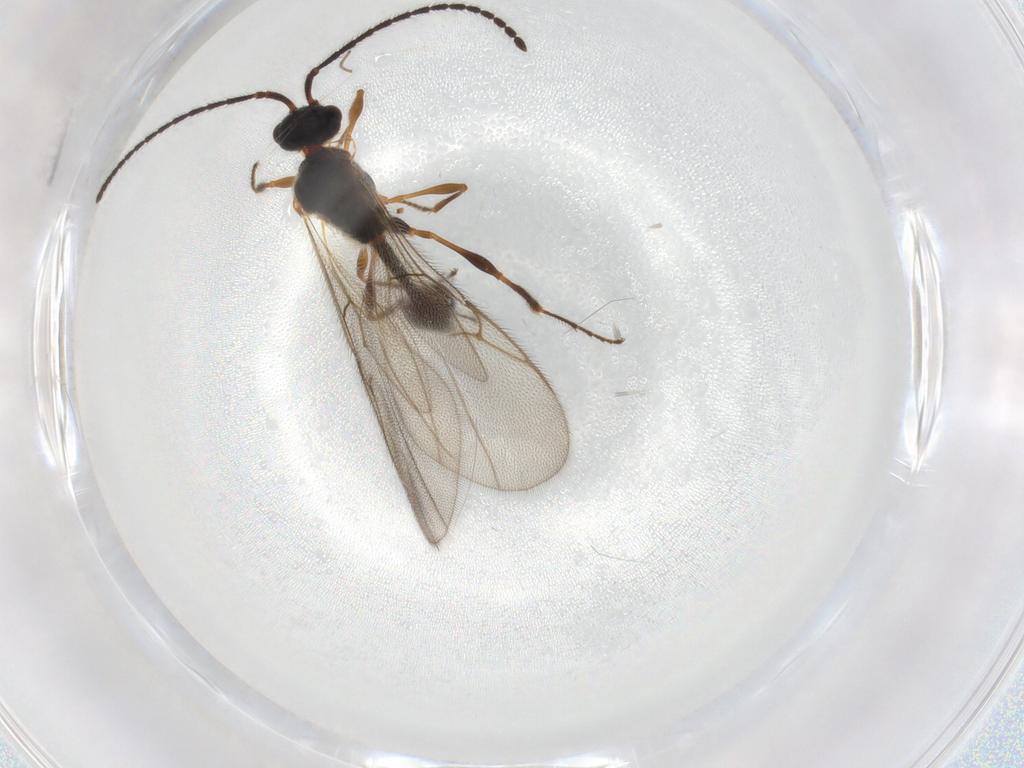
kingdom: Animalia
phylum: Arthropoda
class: Insecta
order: Hymenoptera
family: Diapriidae
